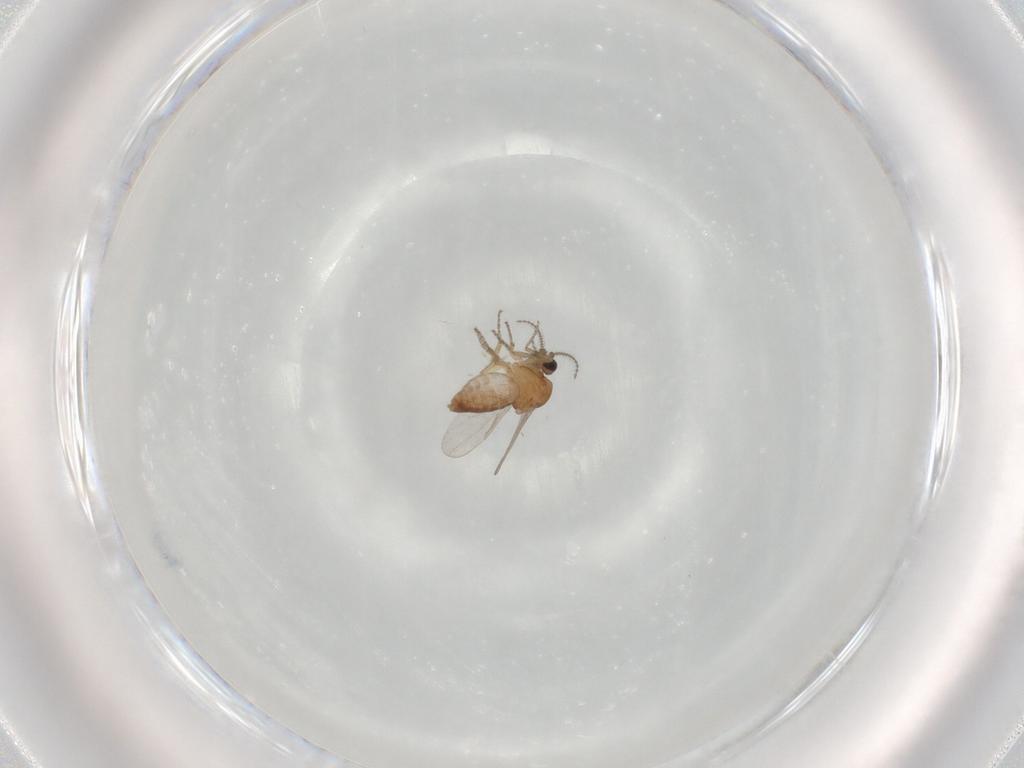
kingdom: Animalia
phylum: Arthropoda
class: Insecta
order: Diptera
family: Ceratopogonidae
